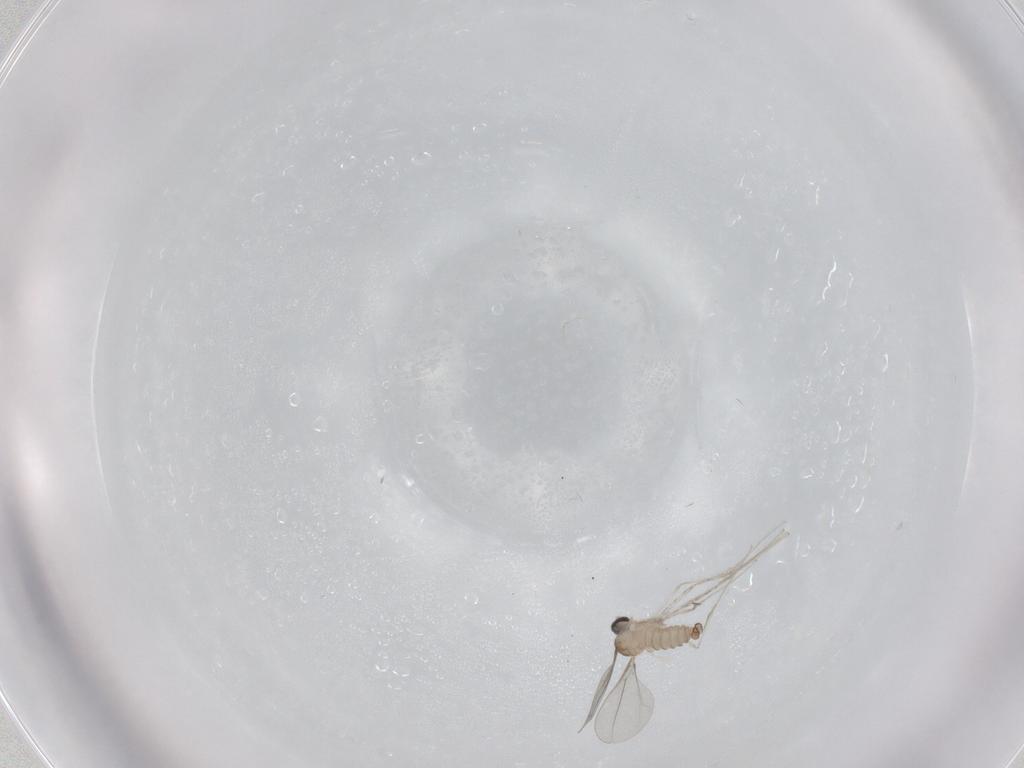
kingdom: Animalia
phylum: Arthropoda
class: Insecta
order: Diptera
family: Cecidomyiidae
